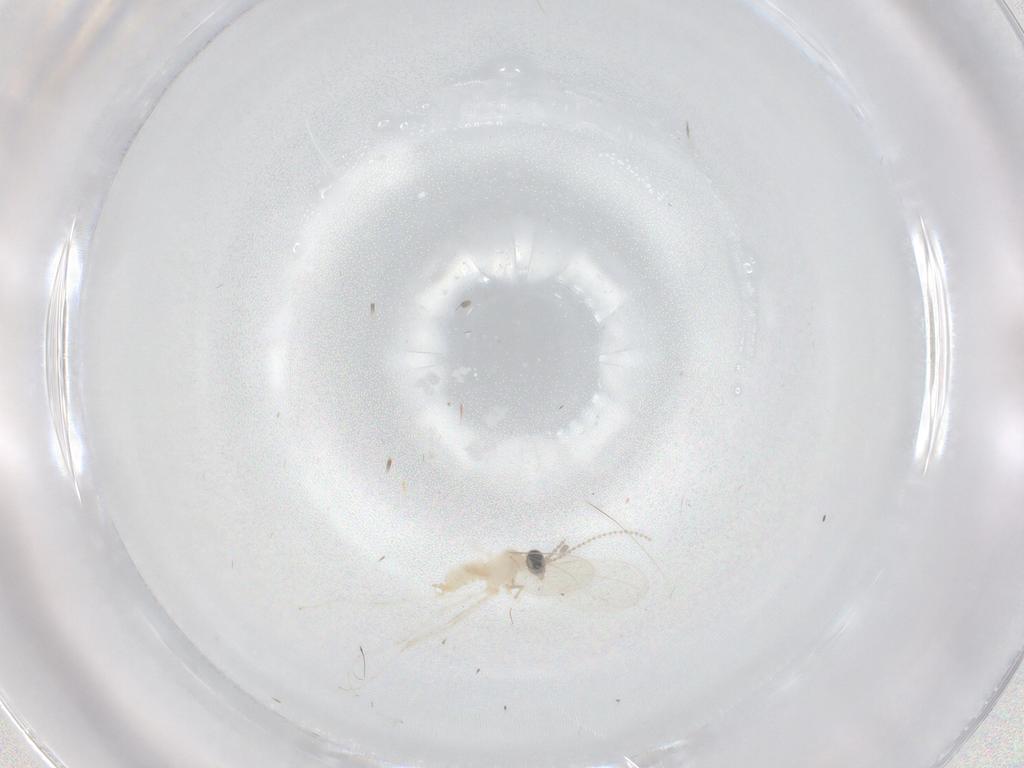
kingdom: Animalia
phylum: Arthropoda
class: Insecta
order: Diptera
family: Cecidomyiidae
